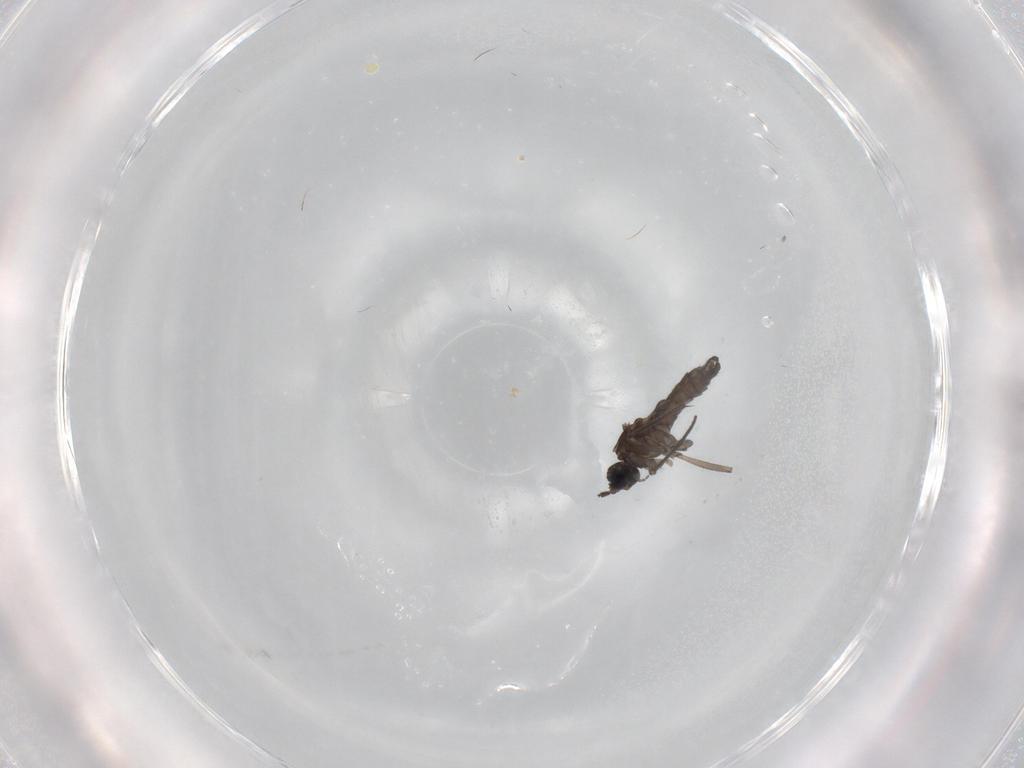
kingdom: Animalia
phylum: Arthropoda
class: Insecta
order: Diptera
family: Sciaridae
